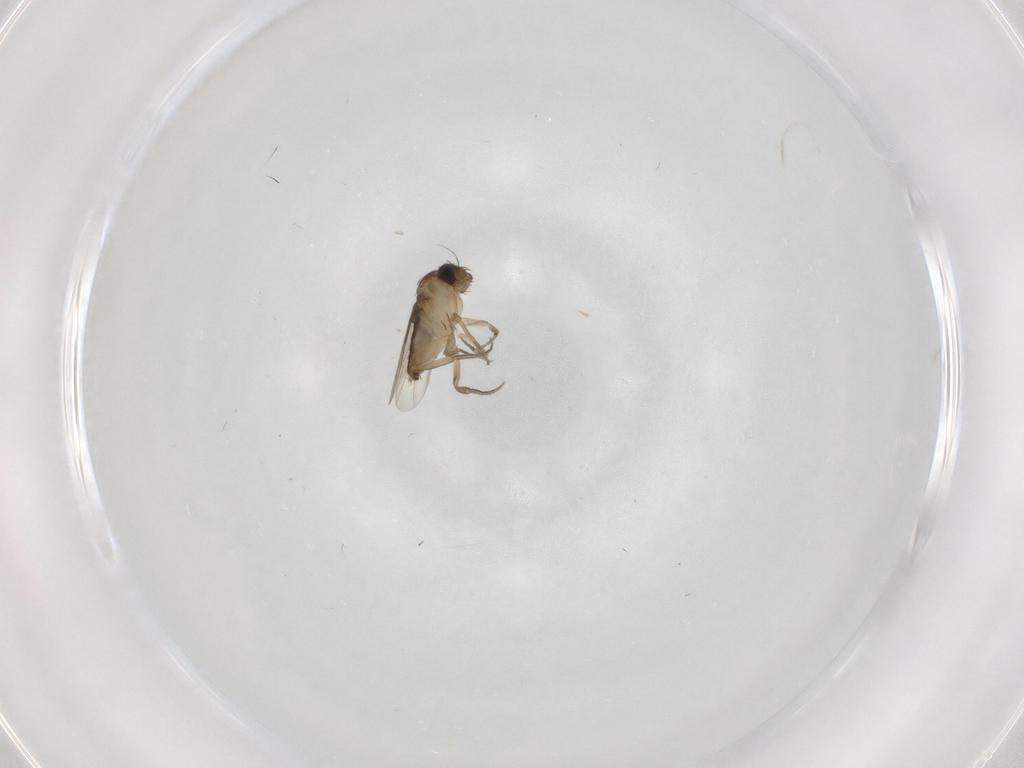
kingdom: Animalia
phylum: Arthropoda
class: Insecta
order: Diptera
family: Phoridae
